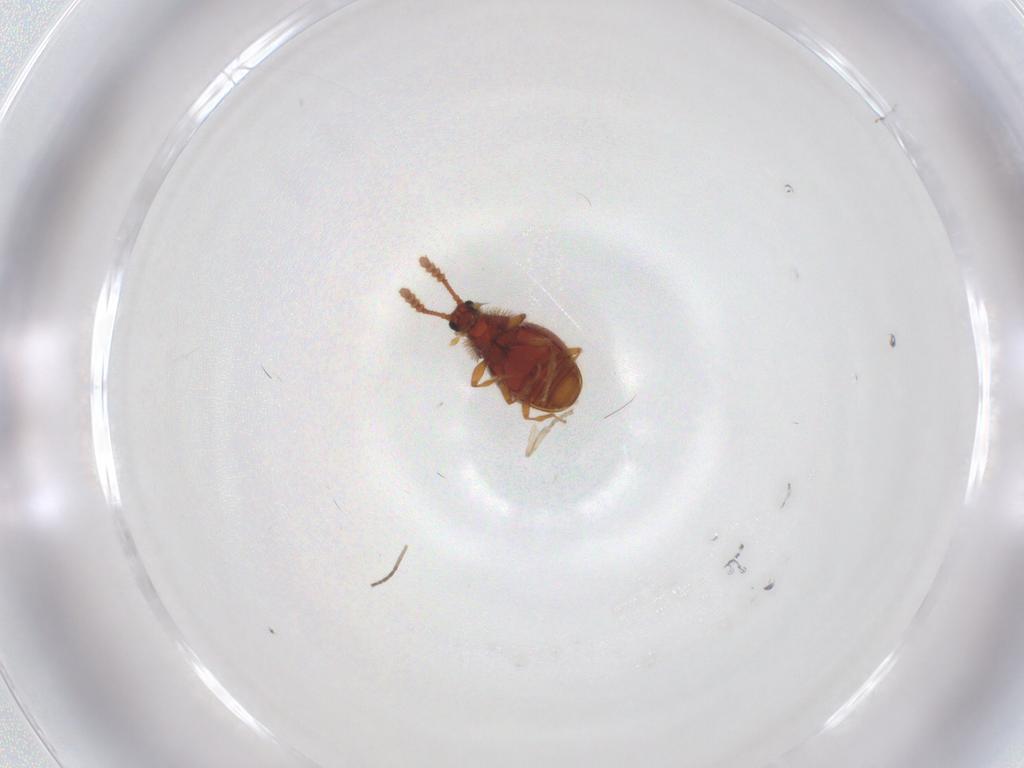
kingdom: Animalia
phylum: Arthropoda
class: Insecta
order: Coleoptera
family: Staphylinidae
